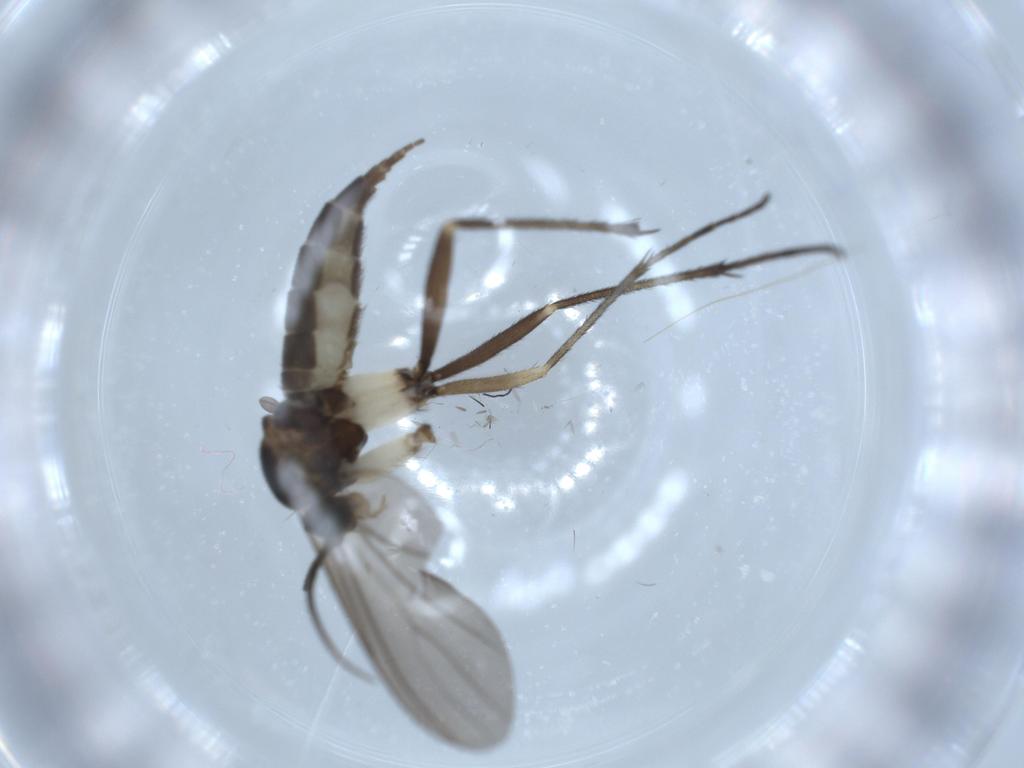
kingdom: Animalia
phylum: Arthropoda
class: Insecta
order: Diptera
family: Sciaridae
